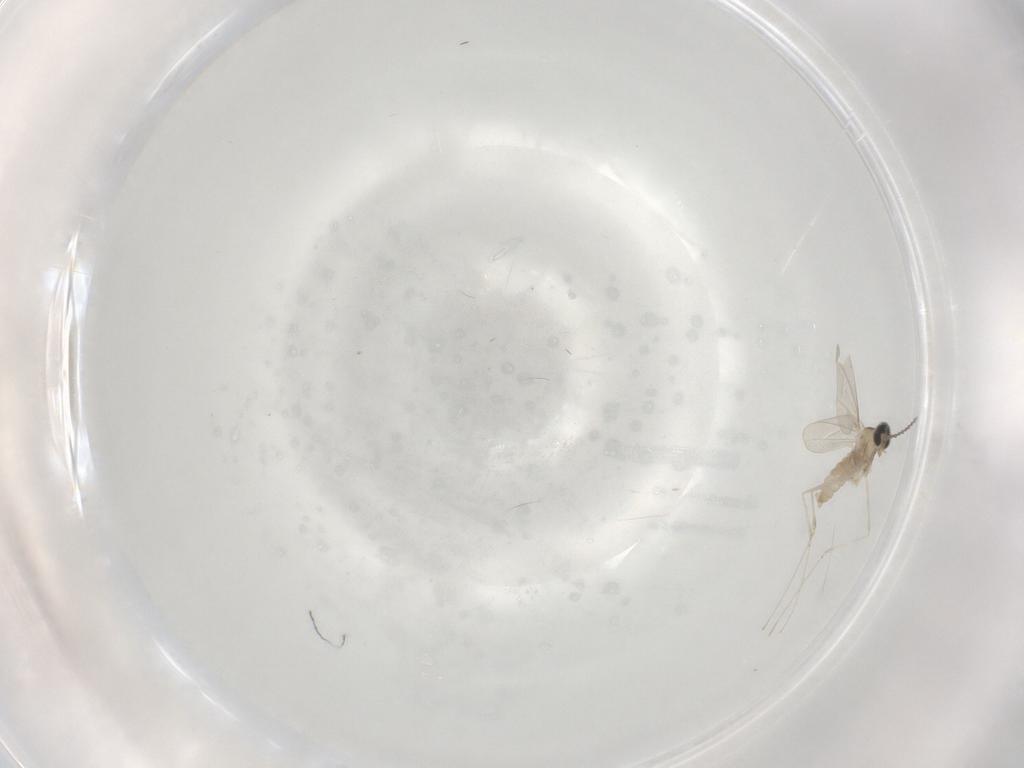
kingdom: Animalia
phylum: Arthropoda
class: Insecta
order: Diptera
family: Cecidomyiidae
